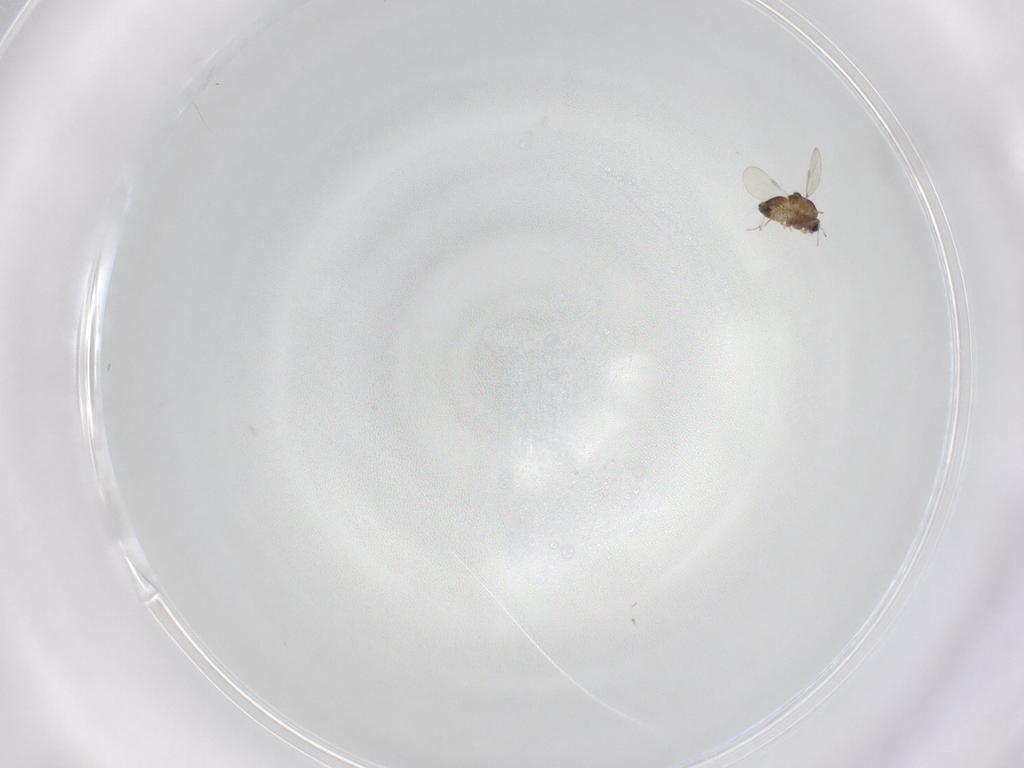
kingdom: Animalia
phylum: Arthropoda
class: Insecta
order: Diptera
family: Chironomidae
